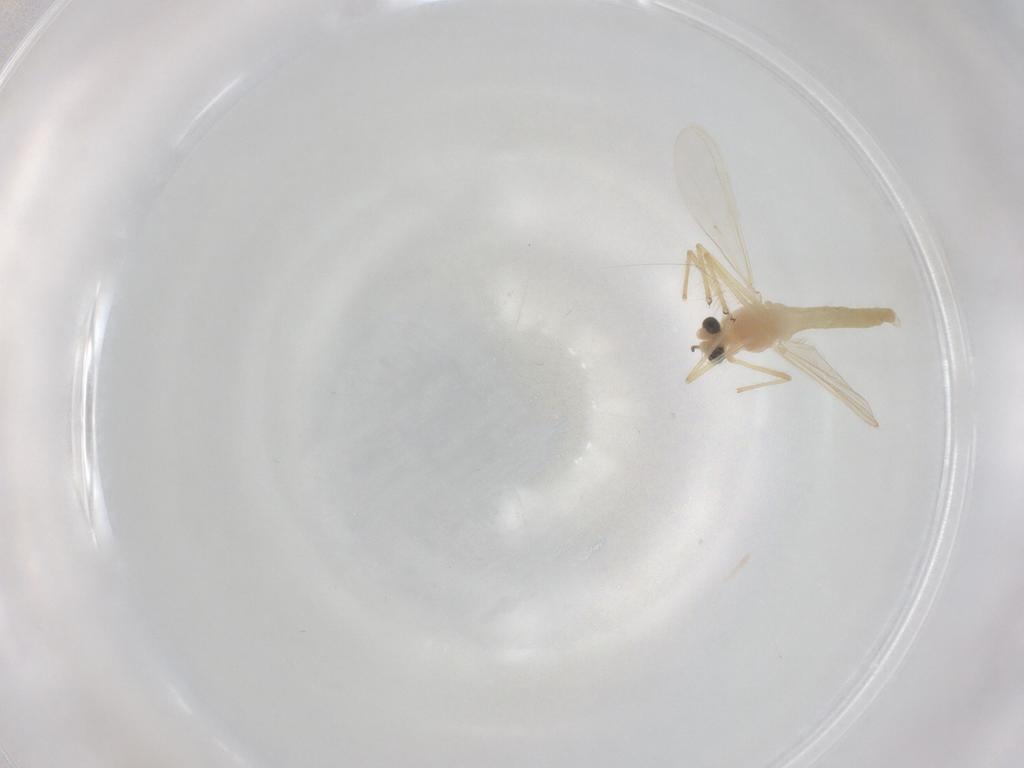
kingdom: Animalia
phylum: Arthropoda
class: Insecta
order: Diptera
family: Chironomidae
